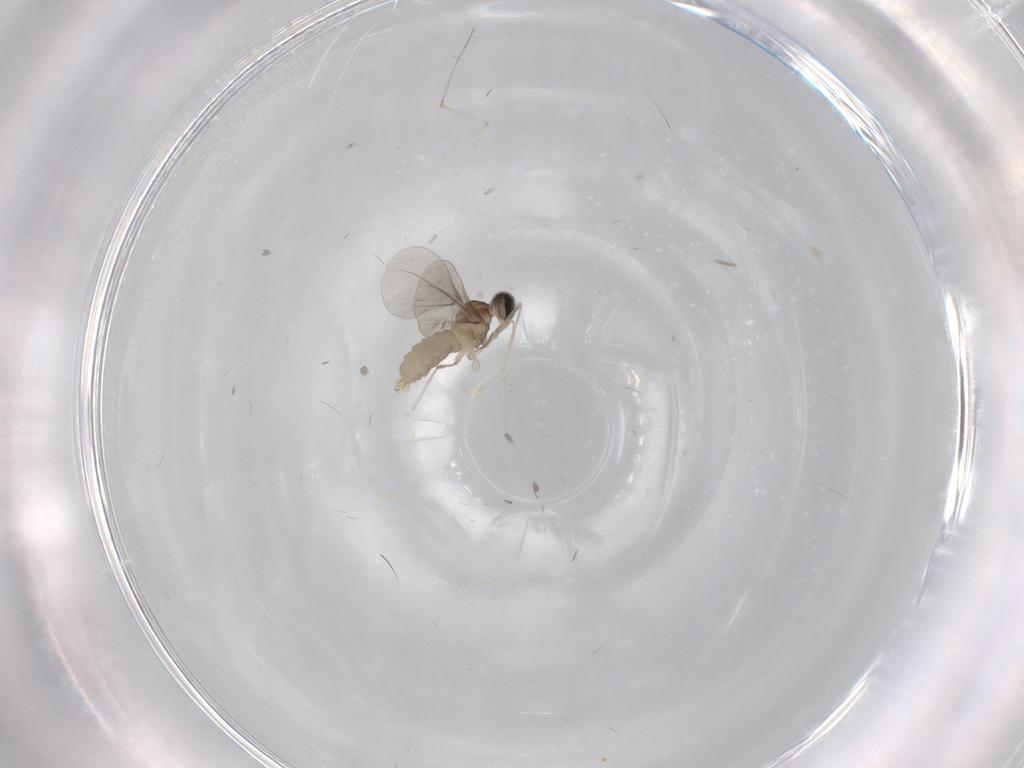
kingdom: Animalia
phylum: Arthropoda
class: Insecta
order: Diptera
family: Cecidomyiidae
